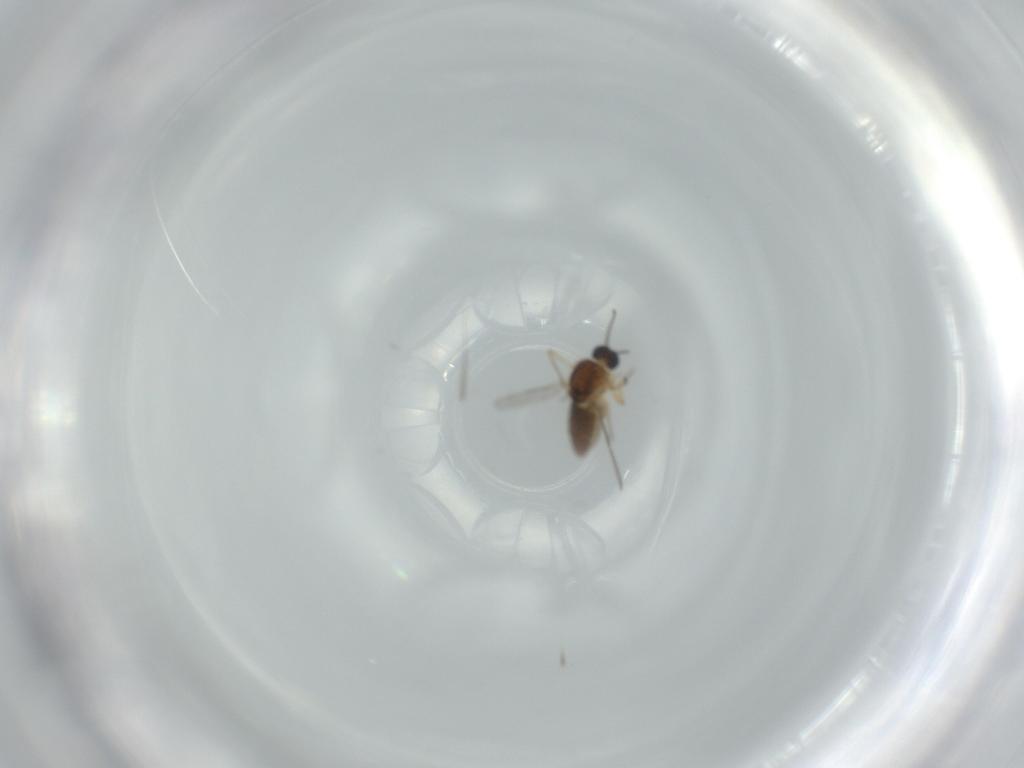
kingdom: Animalia
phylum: Arthropoda
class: Insecta
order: Diptera
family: Ceratopogonidae
